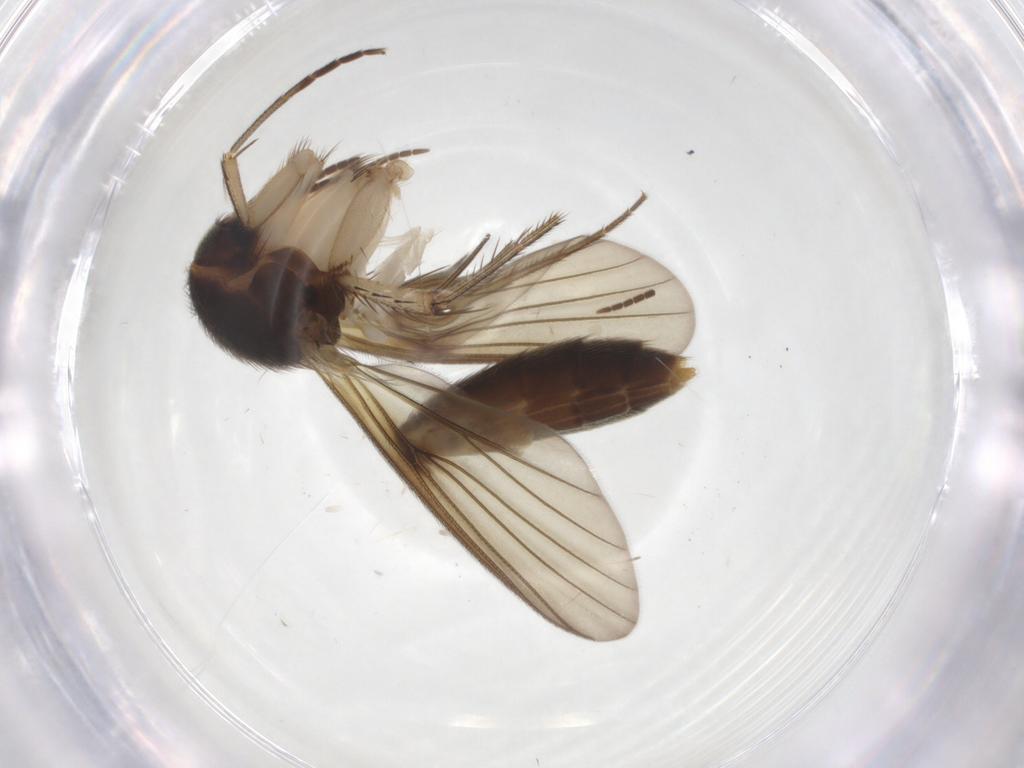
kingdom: Animalia
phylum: Arthropoda
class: Insecta
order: Diptera
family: Mycetophilidae
